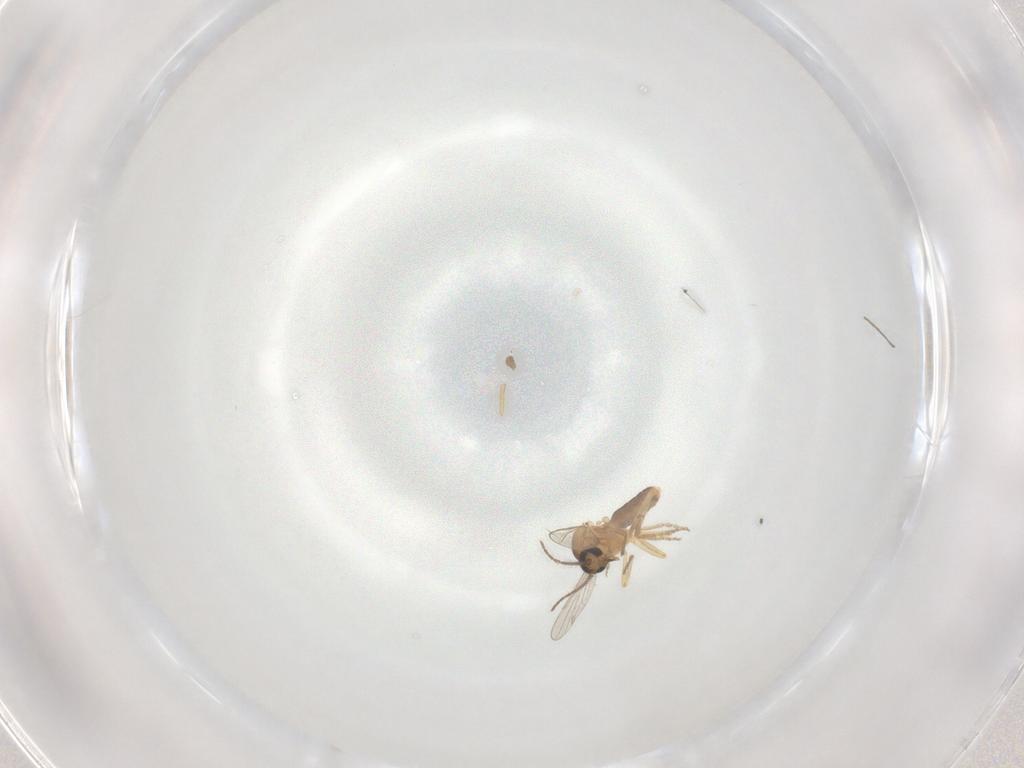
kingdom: Animalia
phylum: Arthropoda
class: Insecta
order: Diptera
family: Ceratopogonidae
